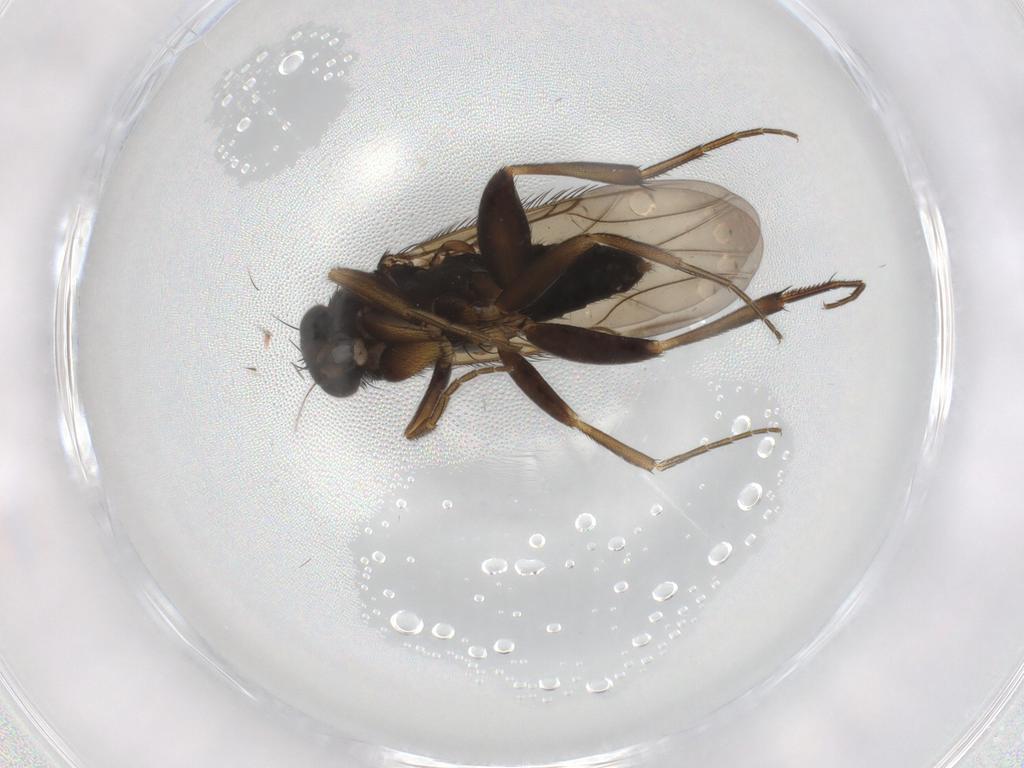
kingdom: Animalia
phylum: Arthropoda
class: Insecta
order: Diptera
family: Phoridae
